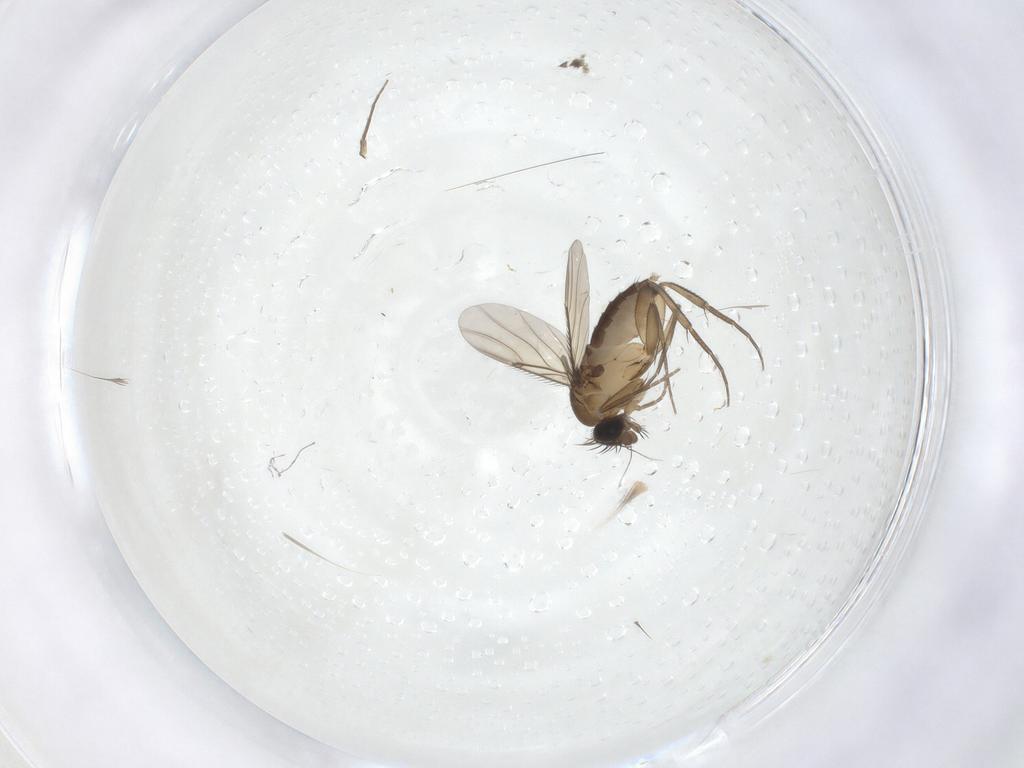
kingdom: Animalia
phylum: Arthropoda
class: Insecta
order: Diptera
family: Phoridae
